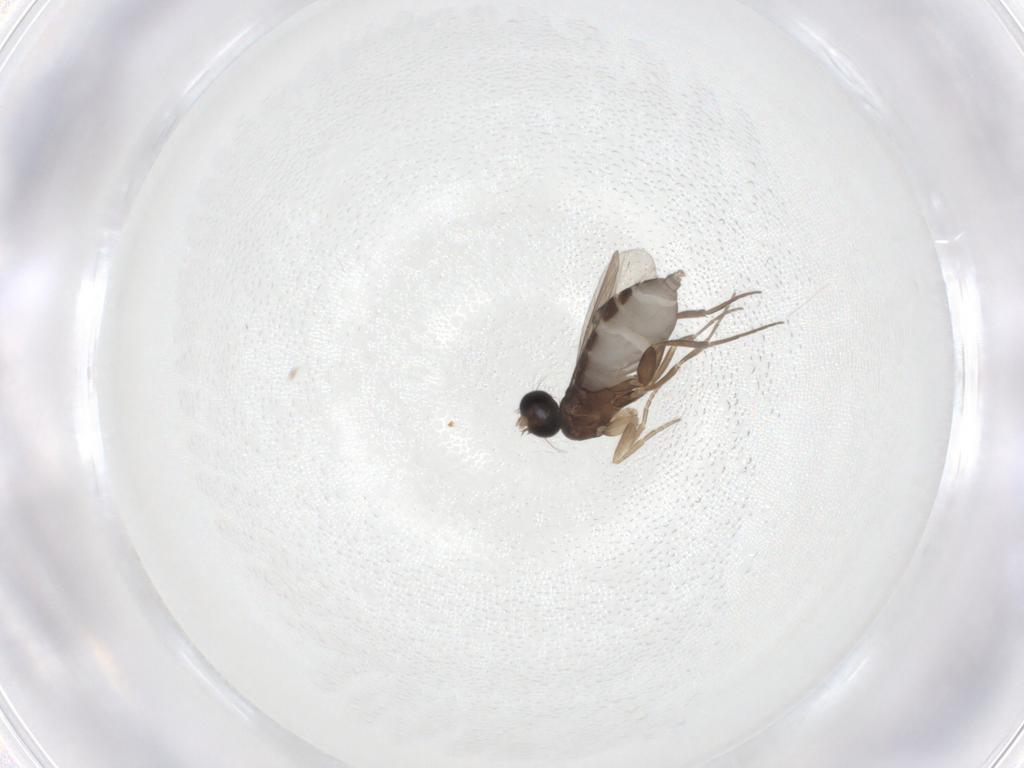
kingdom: Animalia
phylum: Arthropoda
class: Insecta
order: Diptera
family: Phoridae
